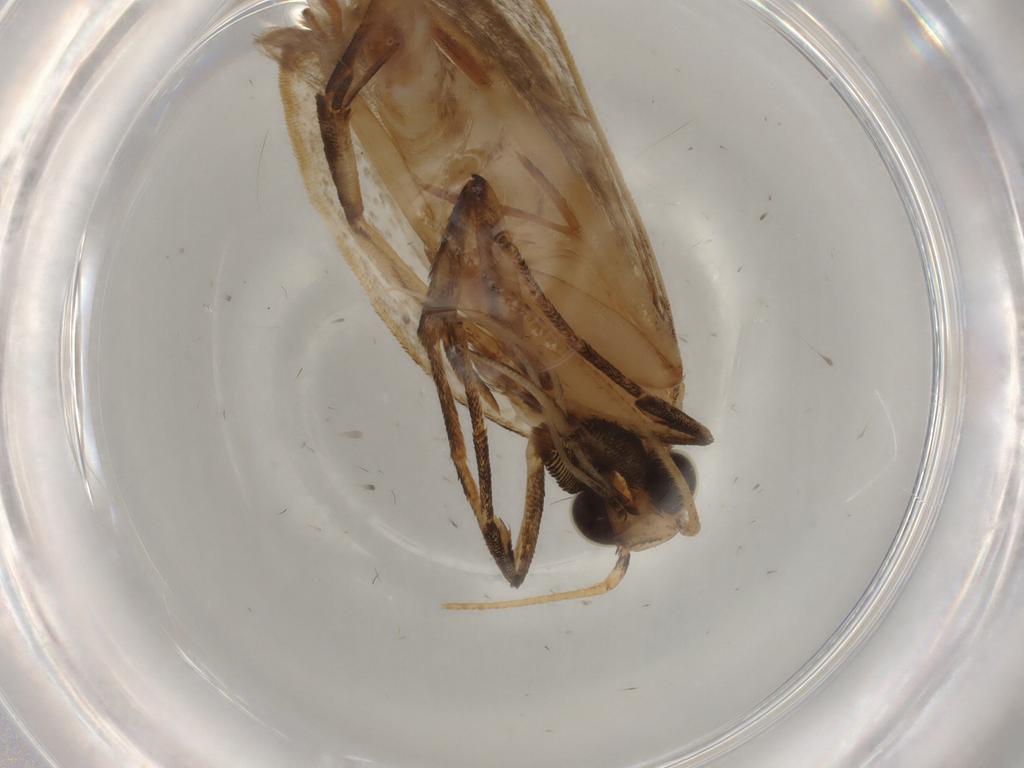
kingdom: Animalia
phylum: Arthropoda
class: Insecta
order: Lepidoptera
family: Gelechiidae
